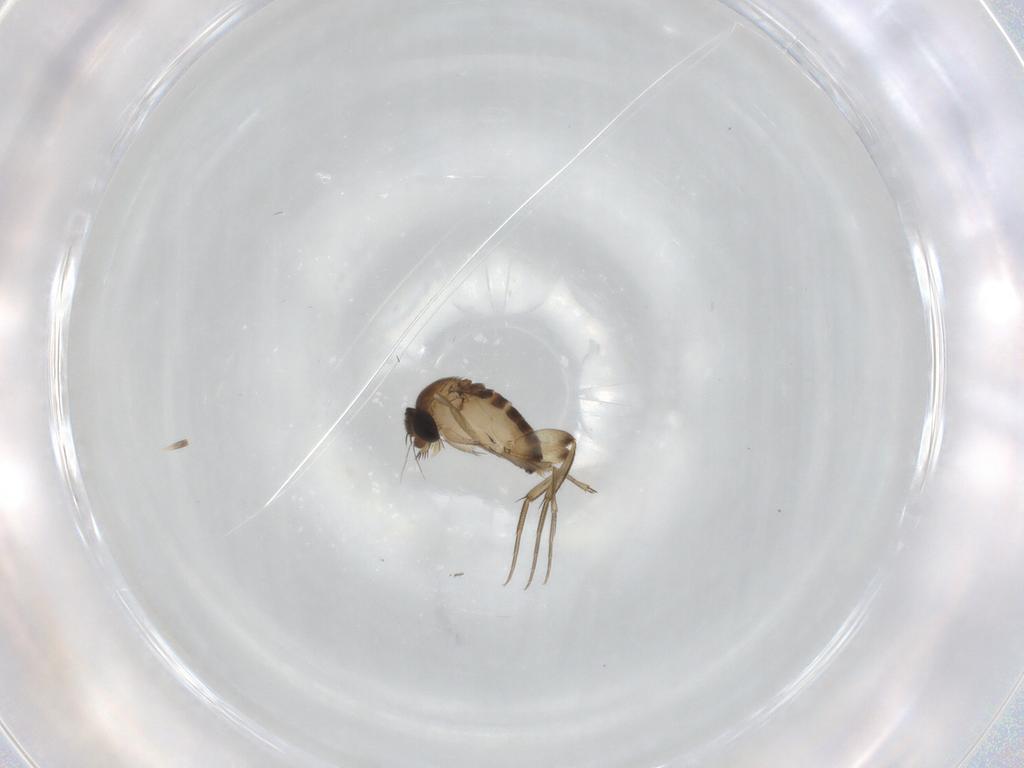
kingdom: Animalia
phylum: Arthropoda
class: Insecta
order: Diptera
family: Phoridae
